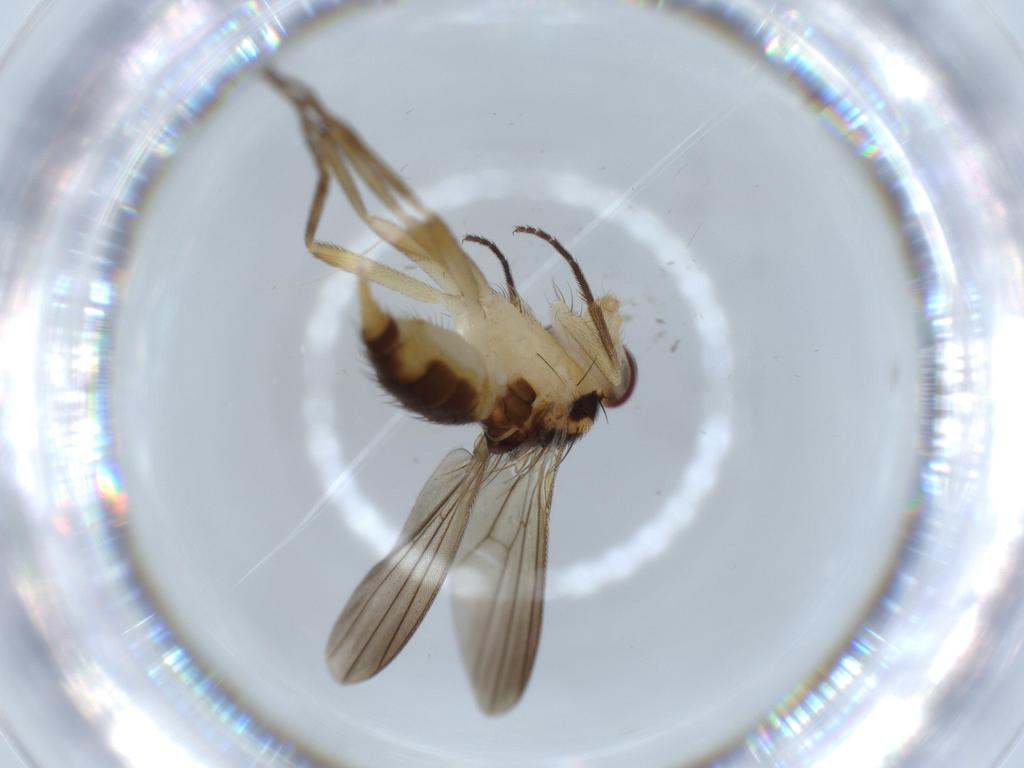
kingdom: Animalia
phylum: Arthropoda
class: Insecta
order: Diptera
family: Clusiidae
